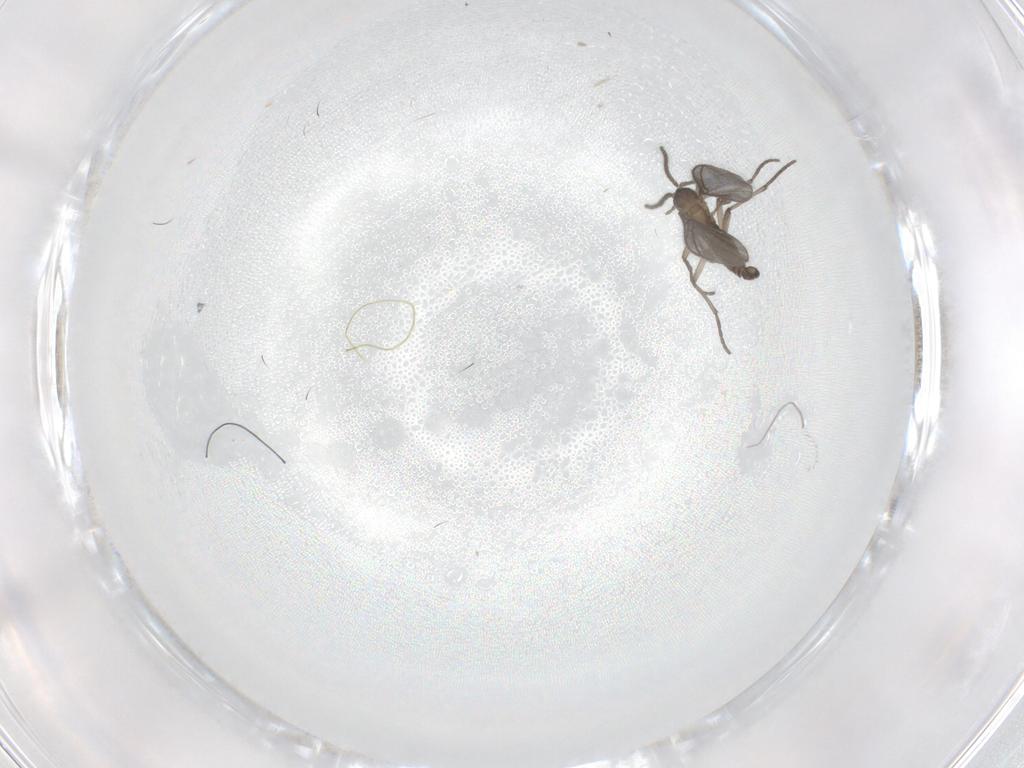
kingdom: Animalia
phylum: Arthropoda
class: Insecta
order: Diptera
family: Sciaridae
